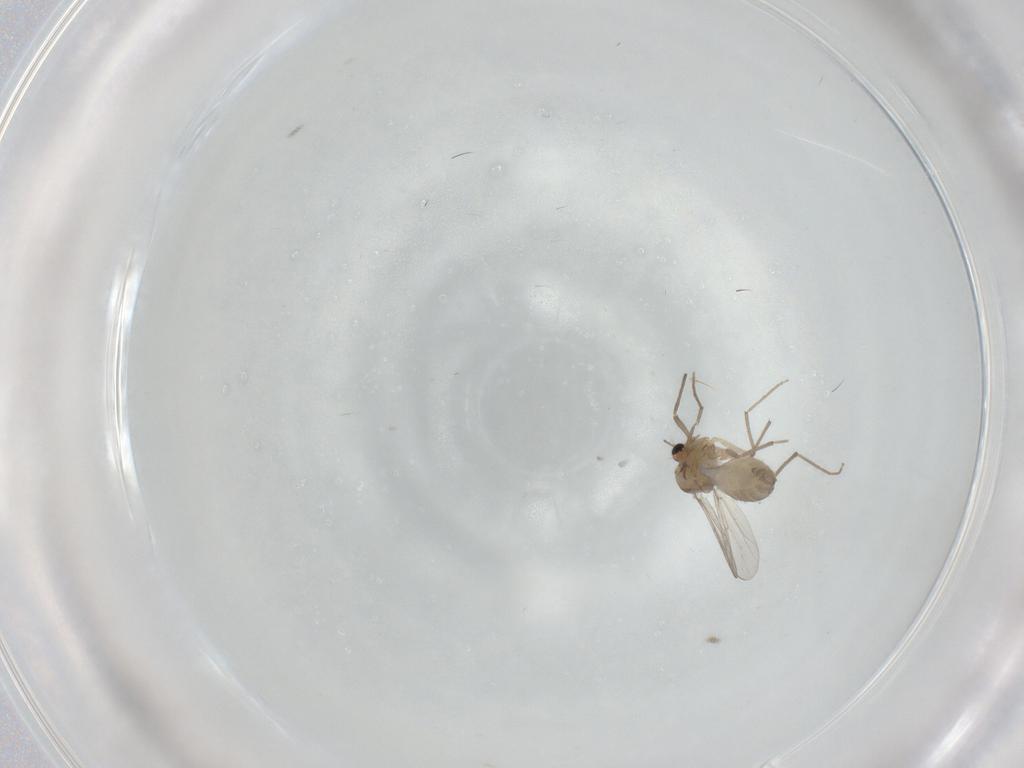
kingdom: Animalia
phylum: Arthropoda
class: Insecta
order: Diptera
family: Chironomidae
